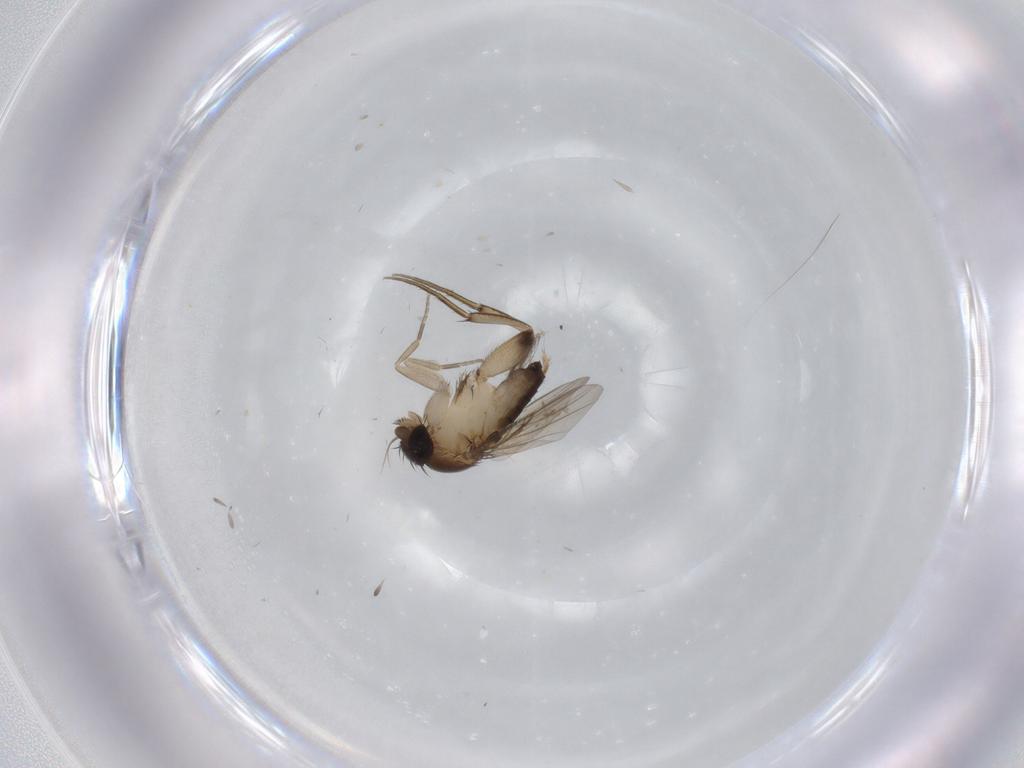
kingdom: Animalia
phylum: Arthropoda
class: Insecta
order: Diptera
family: Phoridae
